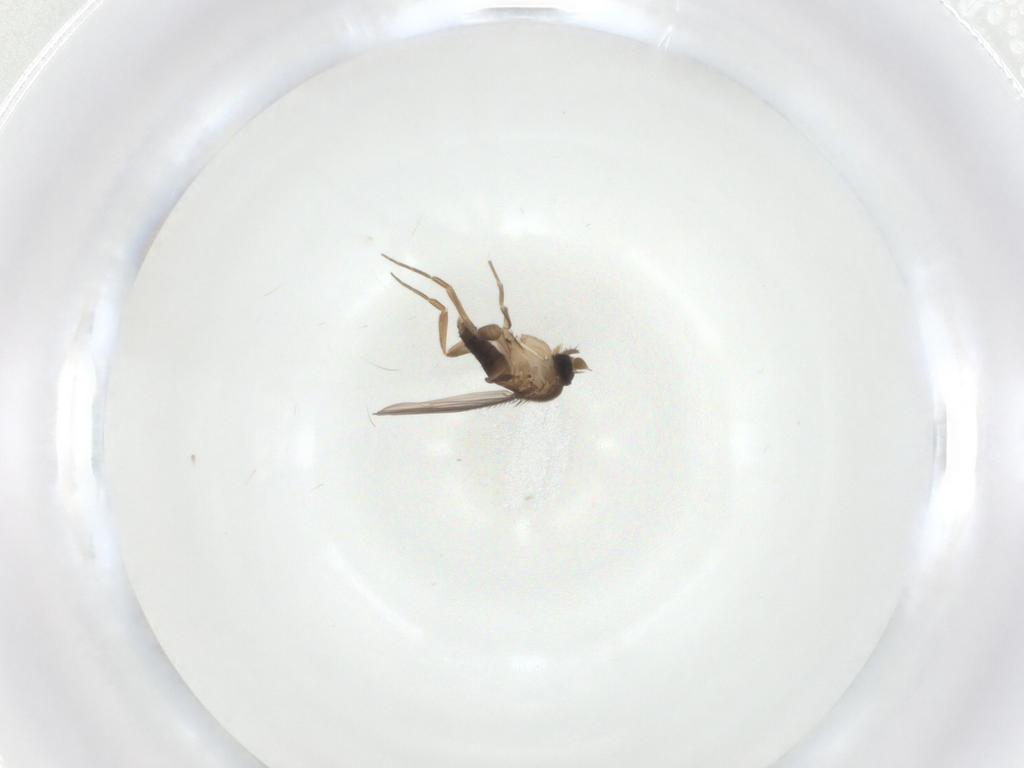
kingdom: Animalia
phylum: Arthropoda
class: Insecta
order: Diptera
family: Phoridae
